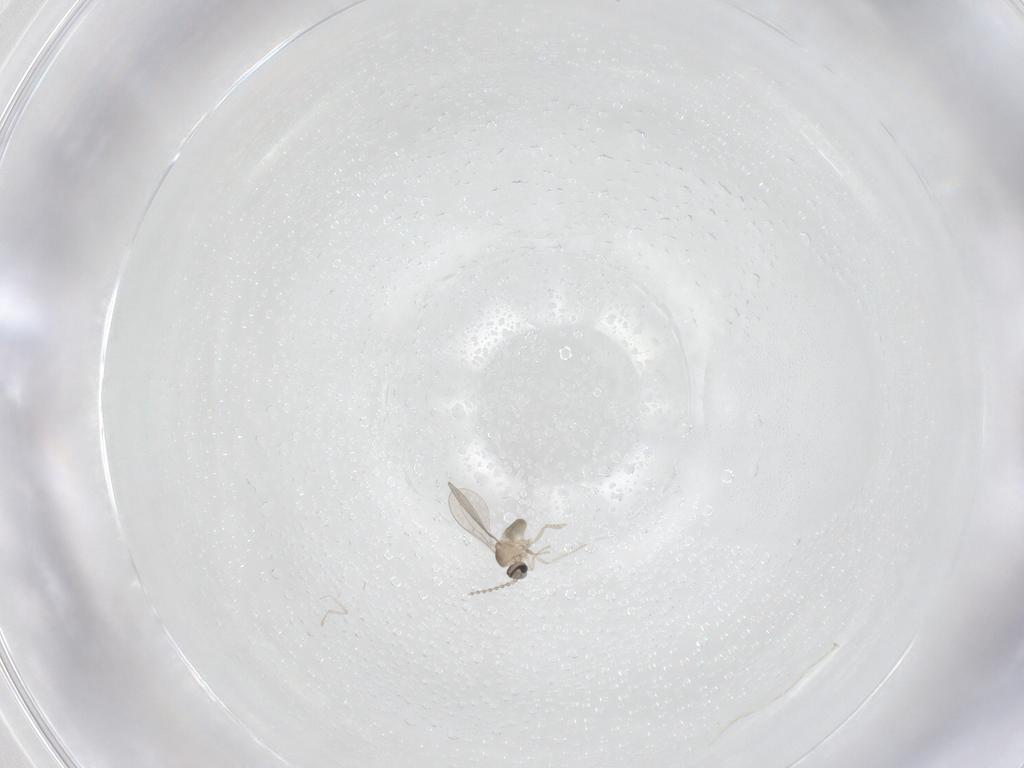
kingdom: Animalia
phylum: Arthropoda
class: Insecta
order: Diptera
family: Cecidomyiidae
